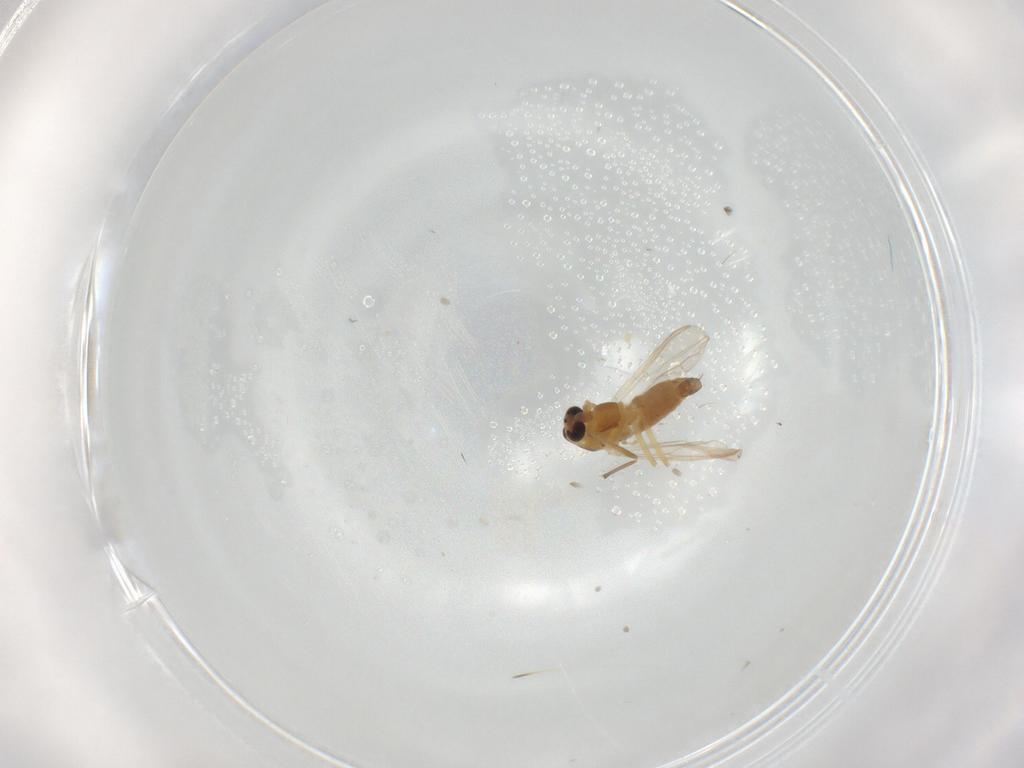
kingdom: Animalia
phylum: Arthropoda
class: Insecta
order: Diptera
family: Chironomidae
